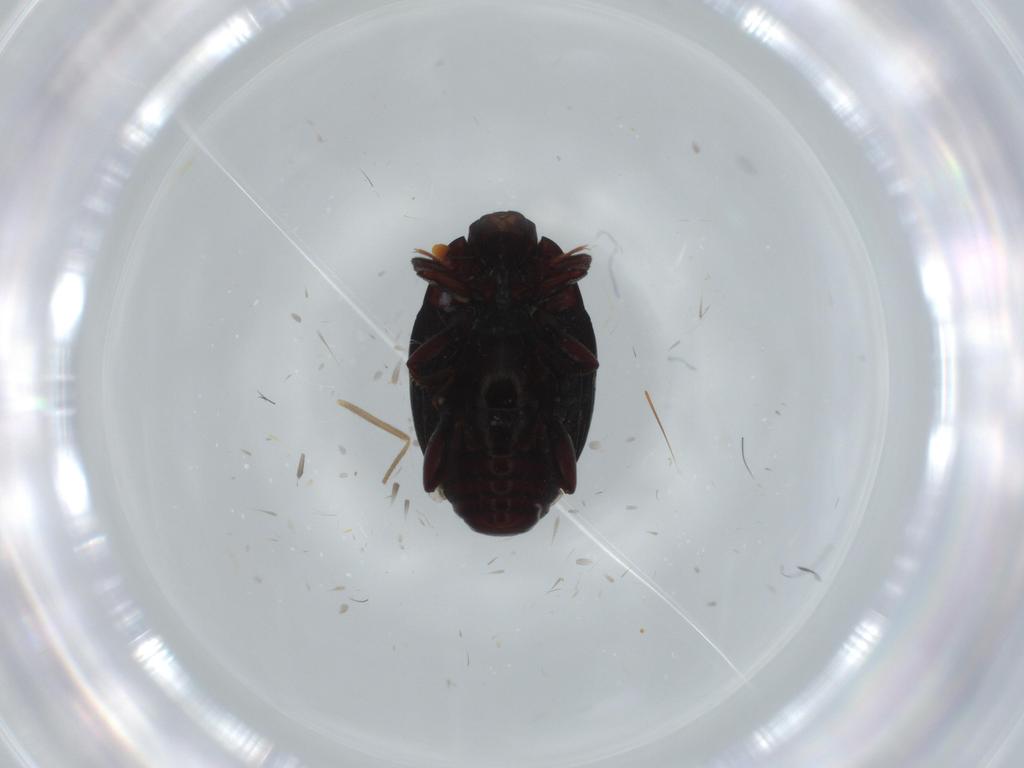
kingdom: Animalia
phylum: Arthropoda
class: Insecta
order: Coleoptera
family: Chrysomelidae
